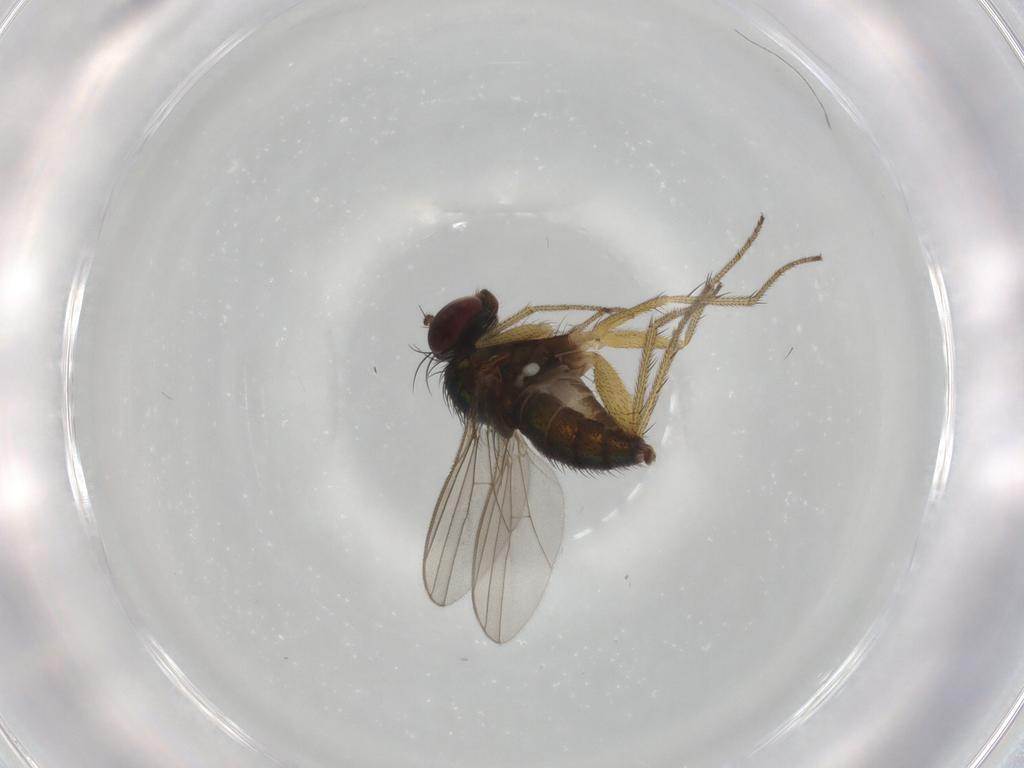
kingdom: Animalia
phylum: Arthropoda
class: Insecta
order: Diptera
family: Dolichopodidae
